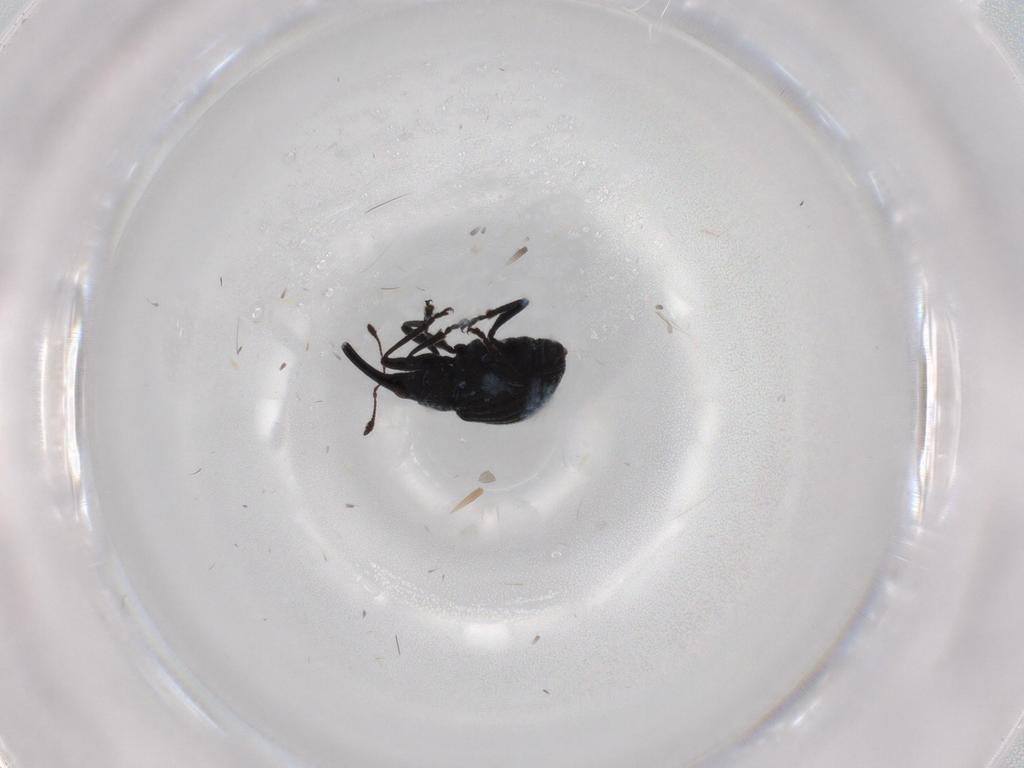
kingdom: Animalia
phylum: Arthropoda
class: Insecta
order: Coleoptera
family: Brentidae
